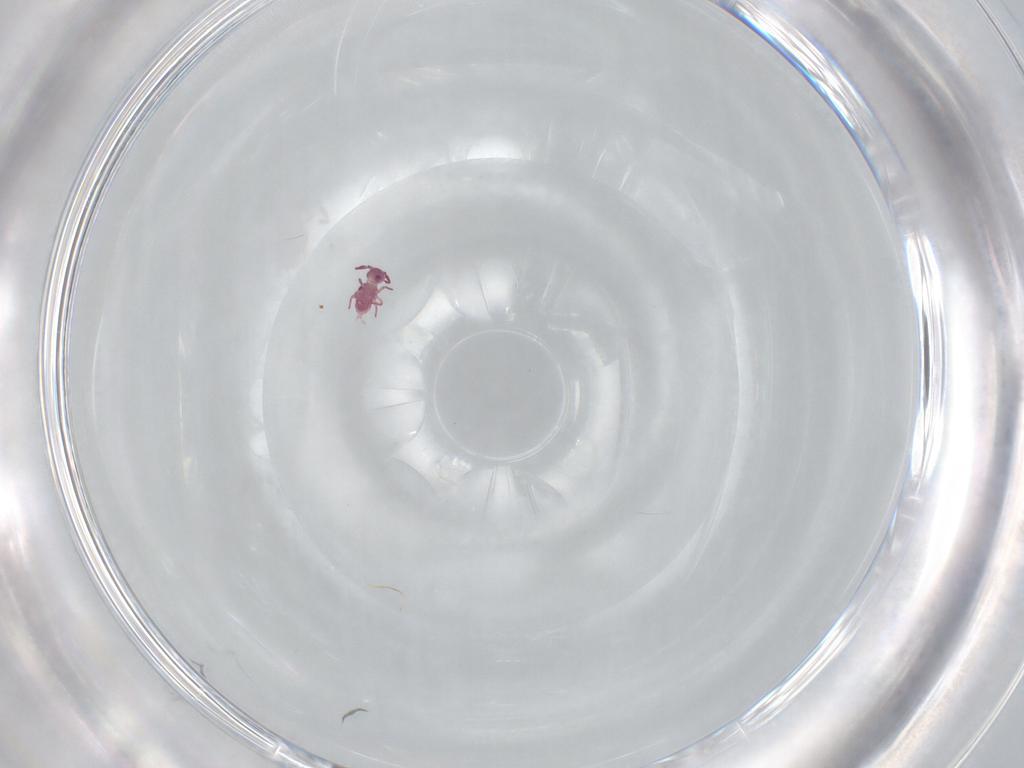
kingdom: Animalia
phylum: Arthropoda
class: Collembola
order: Symphypleona
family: Sminthurididae
